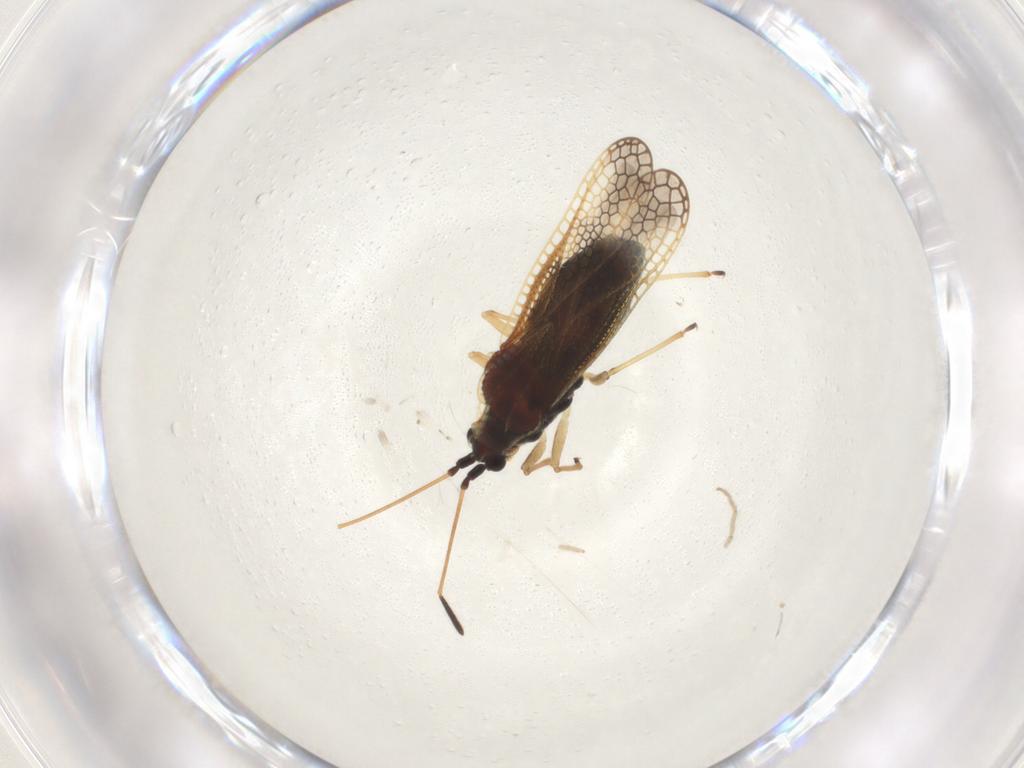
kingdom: Animalia
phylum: Arthropoda
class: Insecta
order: Hemiptera
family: Tingidae
